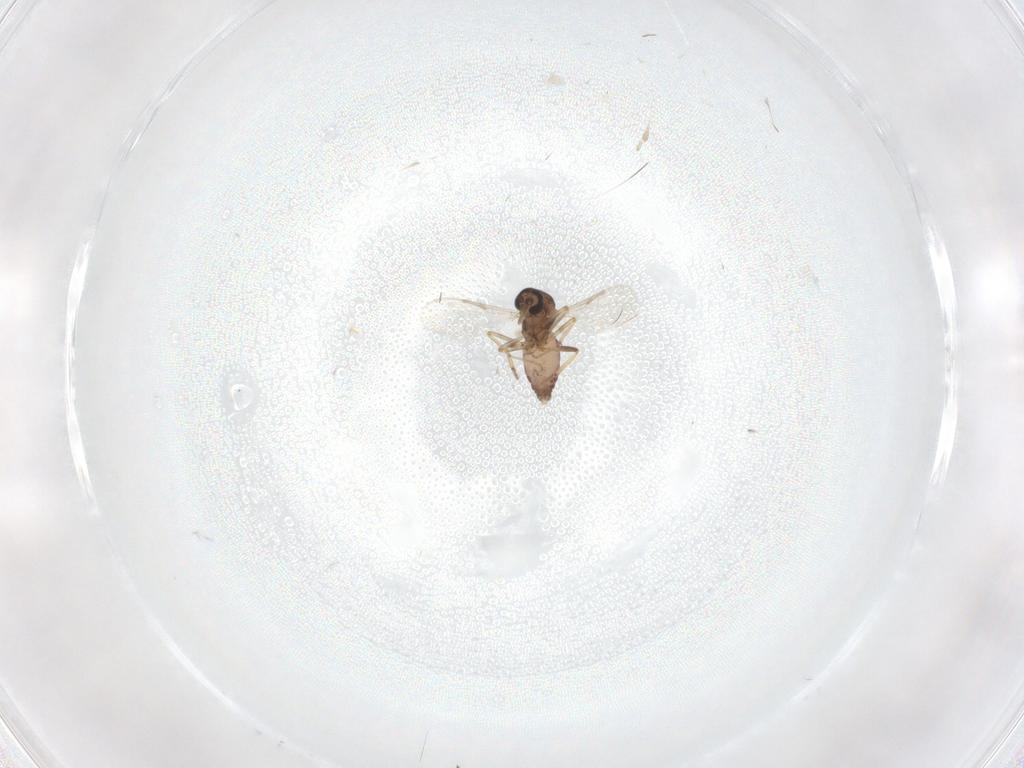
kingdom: Animalia
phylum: Arthropoda
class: Insecta
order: Diptera
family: Ceratopogonidae
